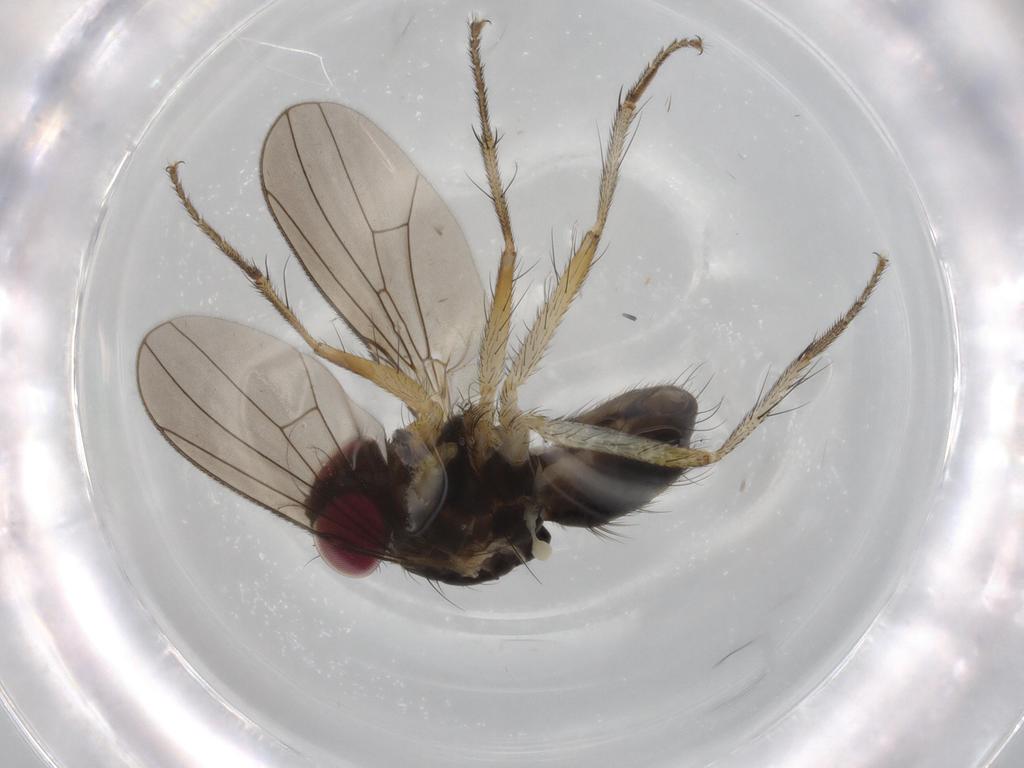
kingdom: Animalia
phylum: Arthropoda
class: Insecta
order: Diptera
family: Anthomyiidae
